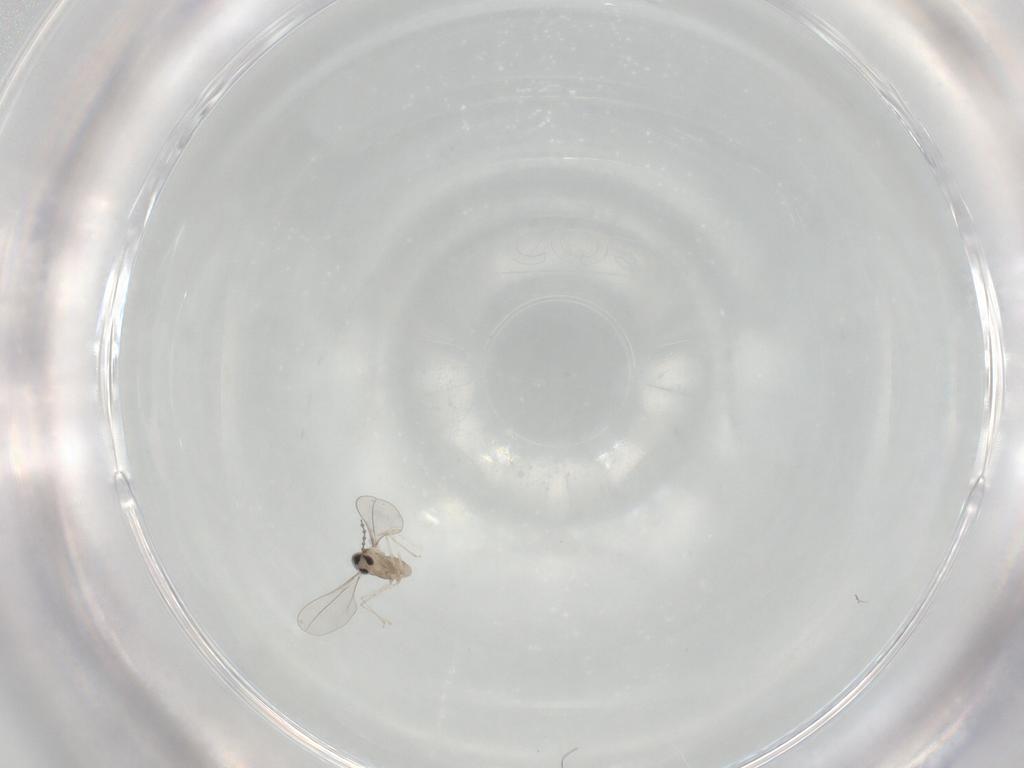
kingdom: Animalia
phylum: Arthropoda
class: Insecta
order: Diptera
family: Cecidomyiidae
